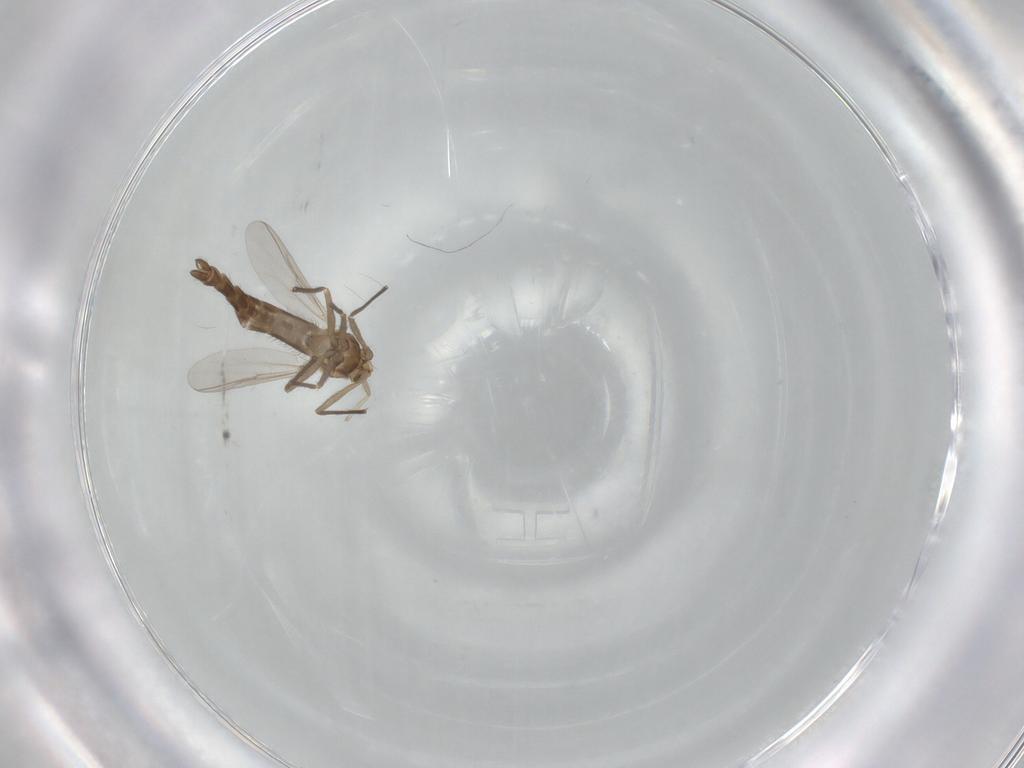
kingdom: Animalia
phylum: Arthropoda
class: Insecta
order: Diptera
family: Chironomidae
